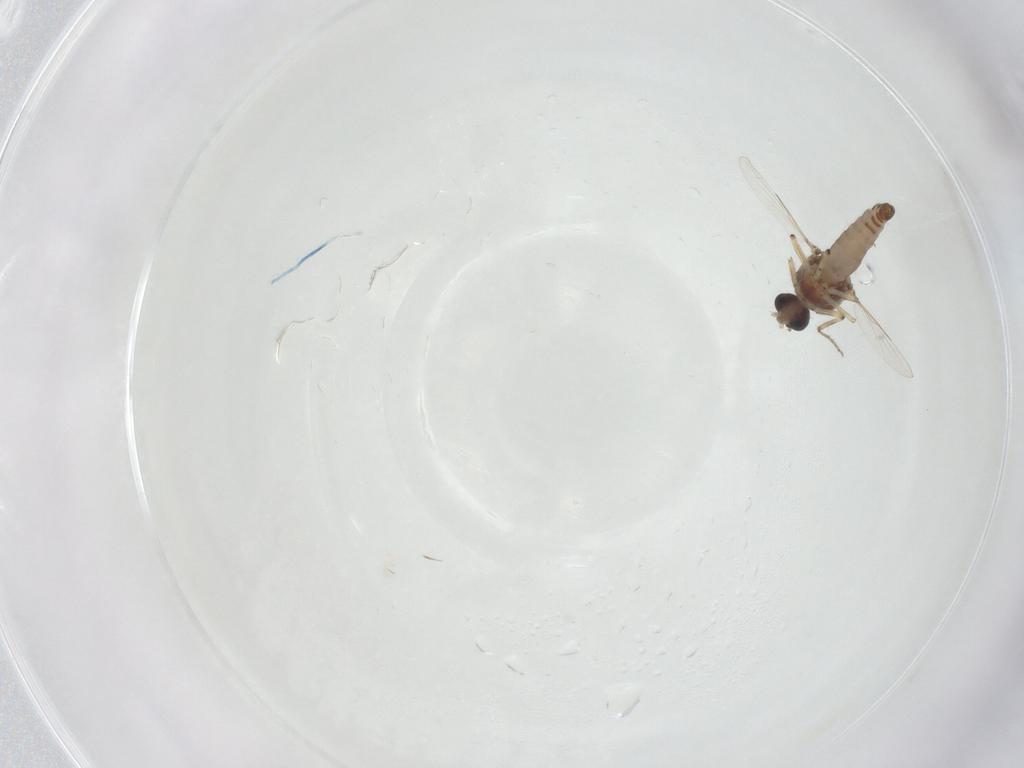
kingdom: Animalia
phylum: Arthropoda
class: Insecta
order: Diptera
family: Ceratopogonidae
